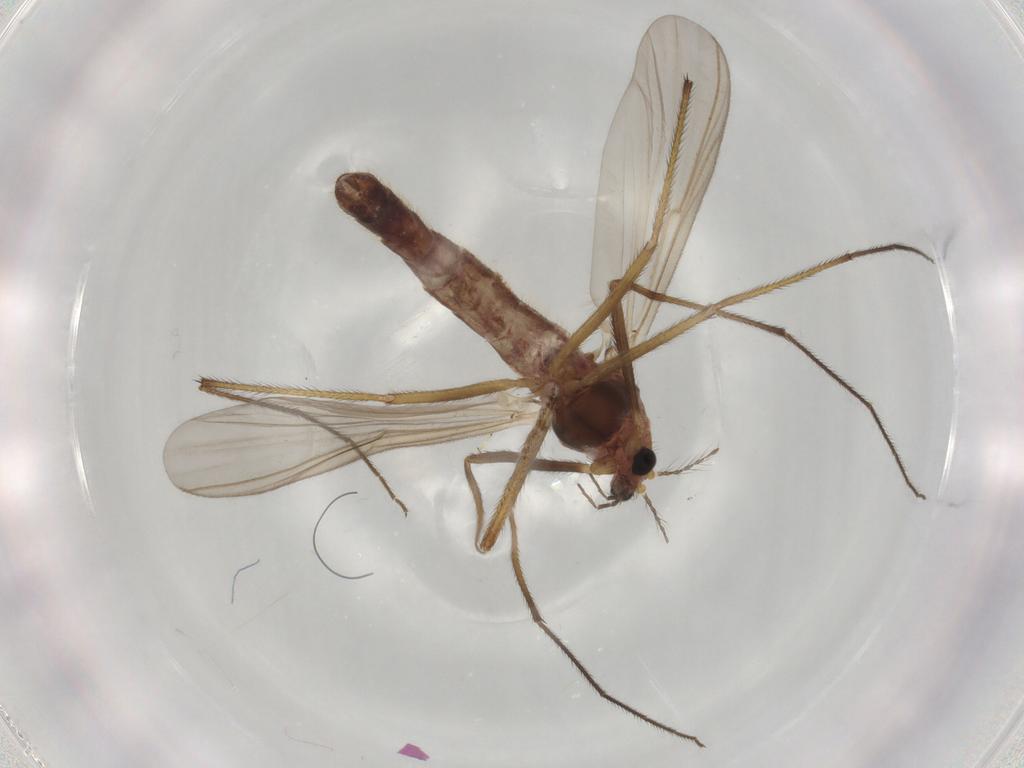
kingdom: Animalia
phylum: Arthropoda
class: Insecta
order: Diptera
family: Chironomidae
